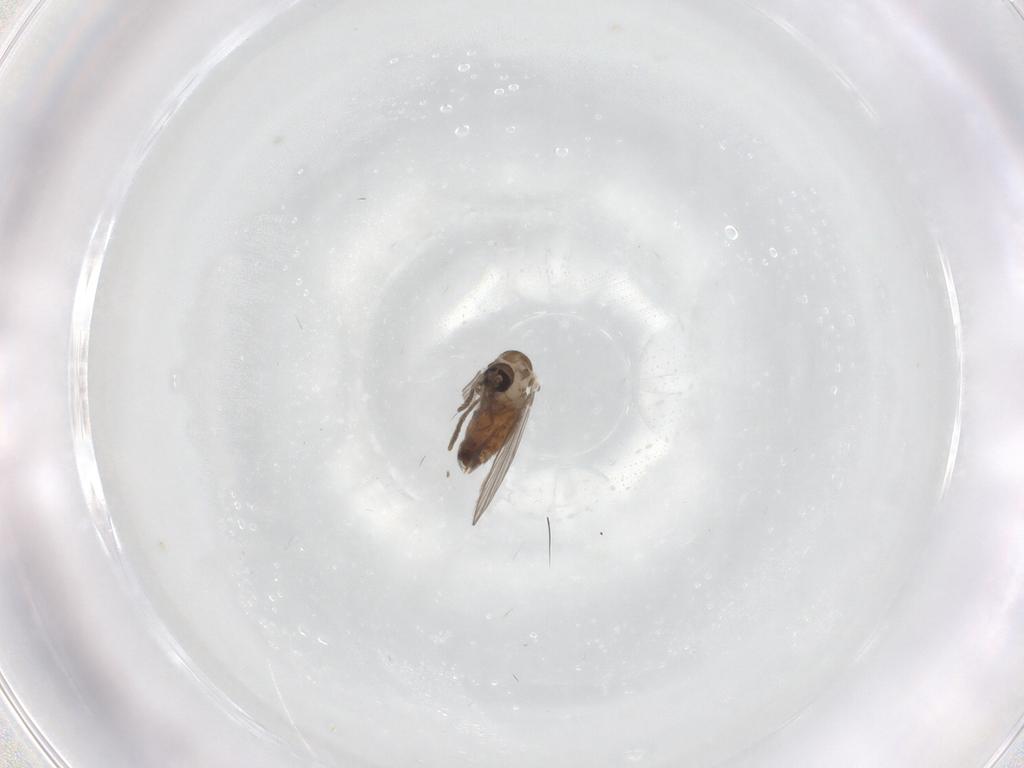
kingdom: Animalia
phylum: Arthropoda
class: Insecta
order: Diptera
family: Psychodidae
